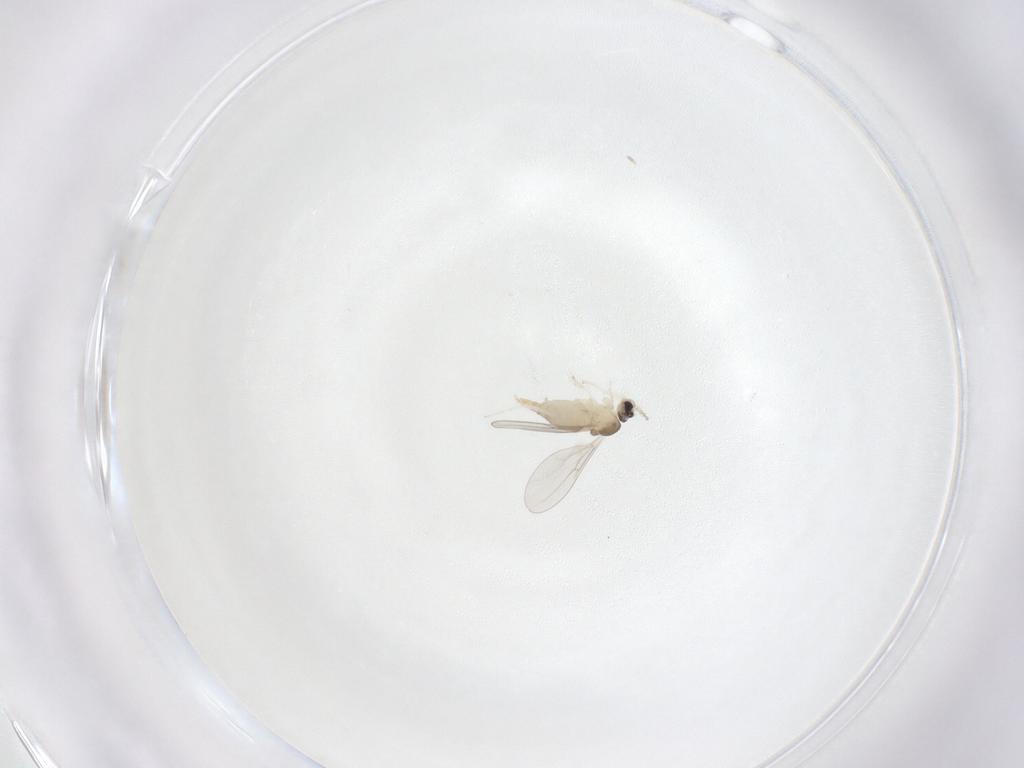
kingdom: Animalia
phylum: Arthropoda
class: Insecta
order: Diptera
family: Cecidomyiidae
